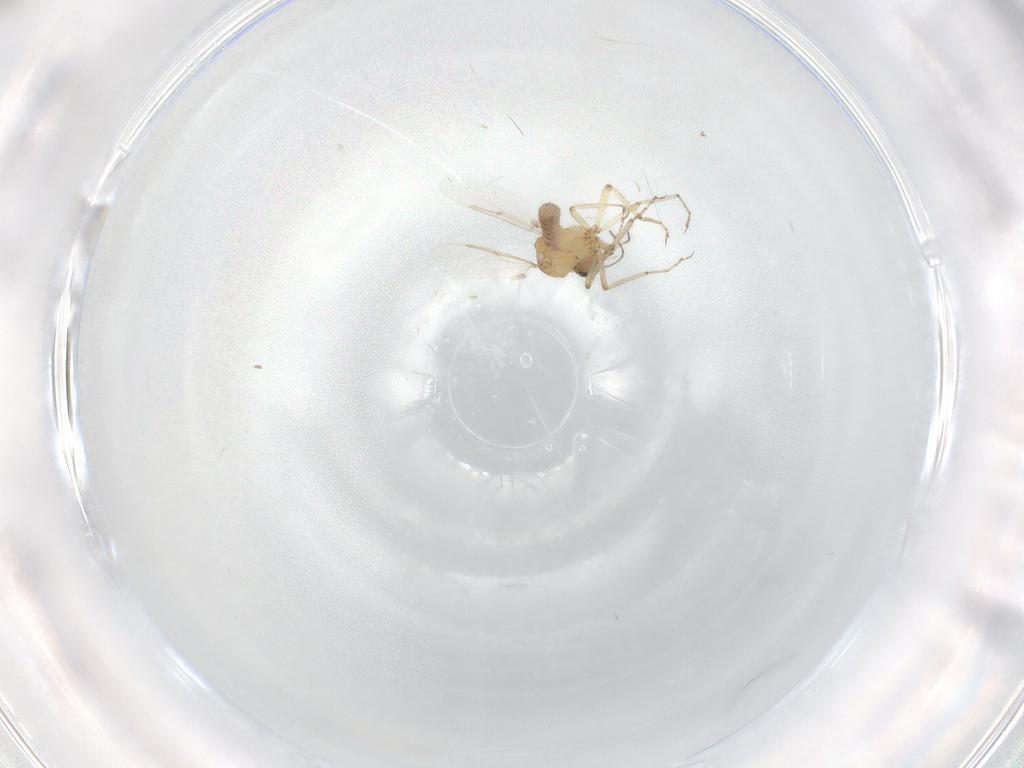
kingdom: Animalia
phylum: Arthropoda
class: Insecta
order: Diptera
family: Ceratopogonidae
